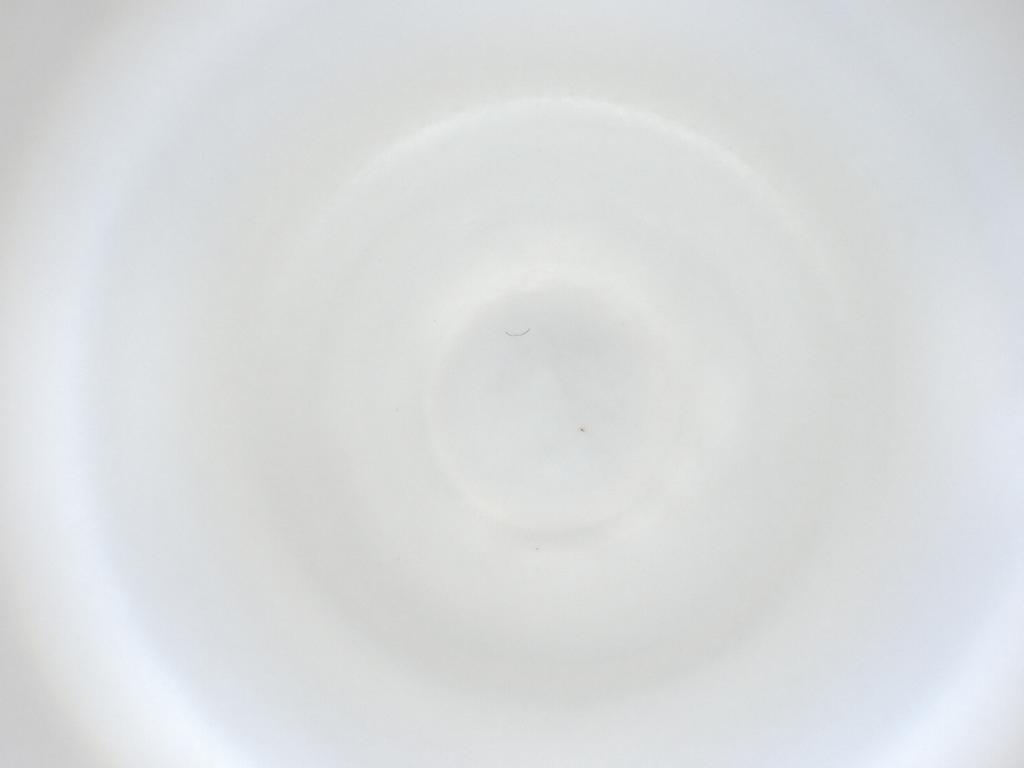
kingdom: Animalia
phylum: Arthropoda
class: Insecta
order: Diptera
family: Cecidomyiidae
